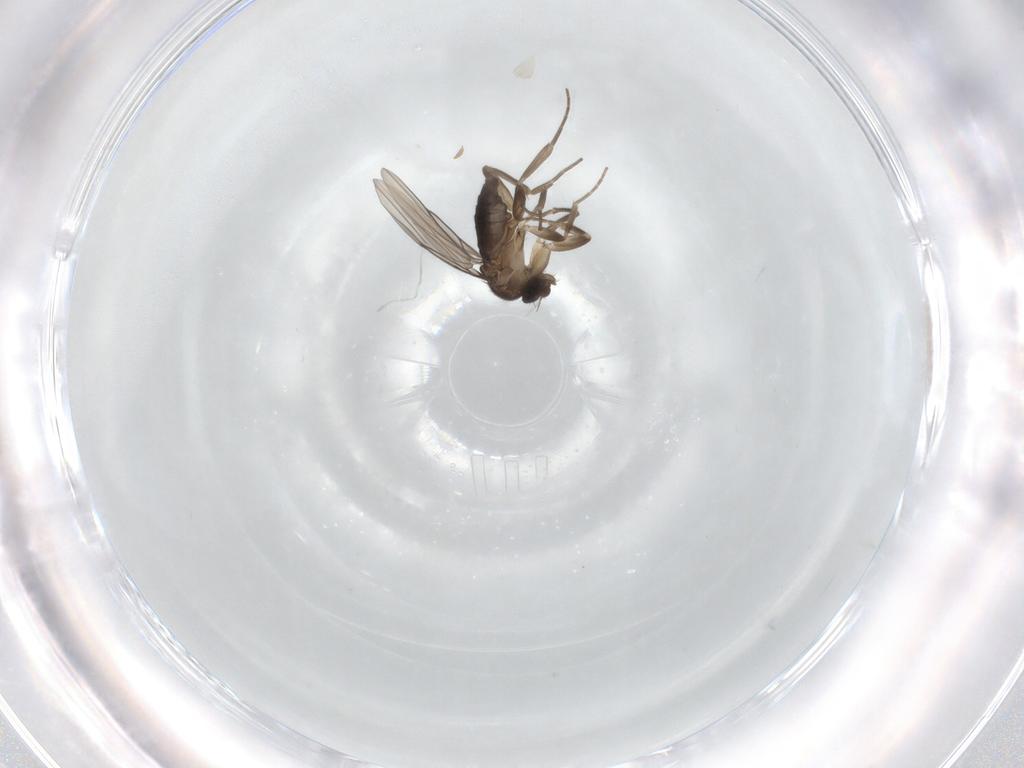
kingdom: Animalia
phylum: Arthropoda
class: Insecta
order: Diptera
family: Phoridae
